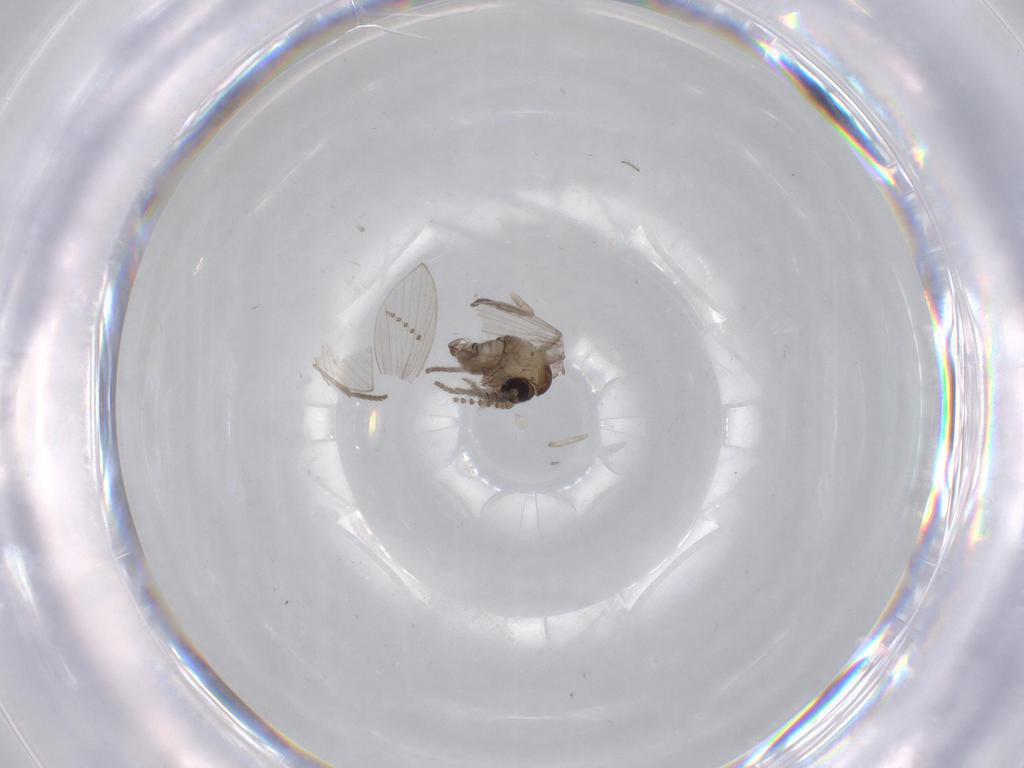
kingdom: Animalia
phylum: Arthropoda
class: Insecta
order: Diptera
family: Psychodidae
